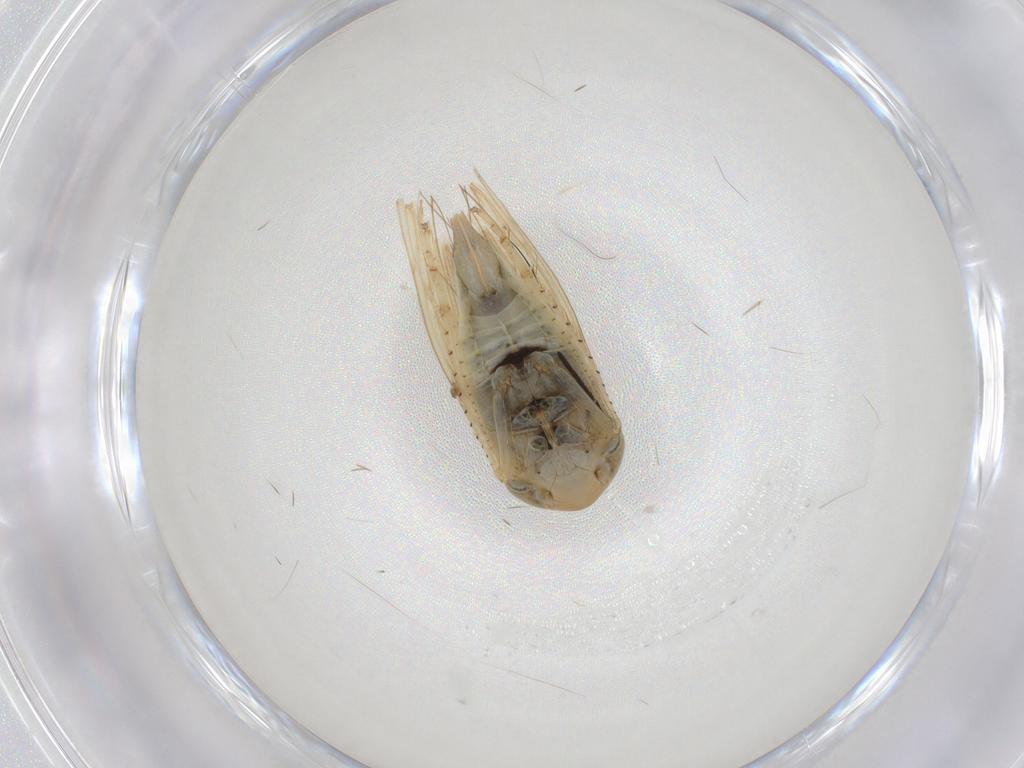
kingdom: Animalia
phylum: Arthropoda
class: Insecta
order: Hemiptera
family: Cicadellidae
